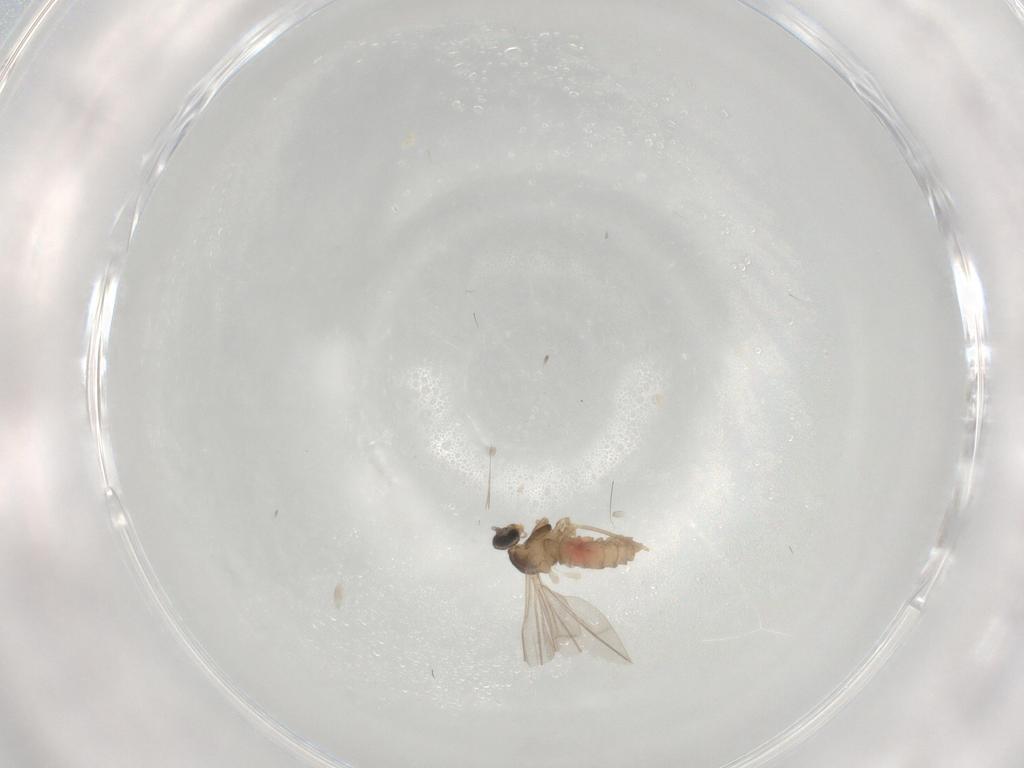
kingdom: Animalia
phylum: Arthropoda
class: Insecta
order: Diptera
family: Cecidomyiidae
